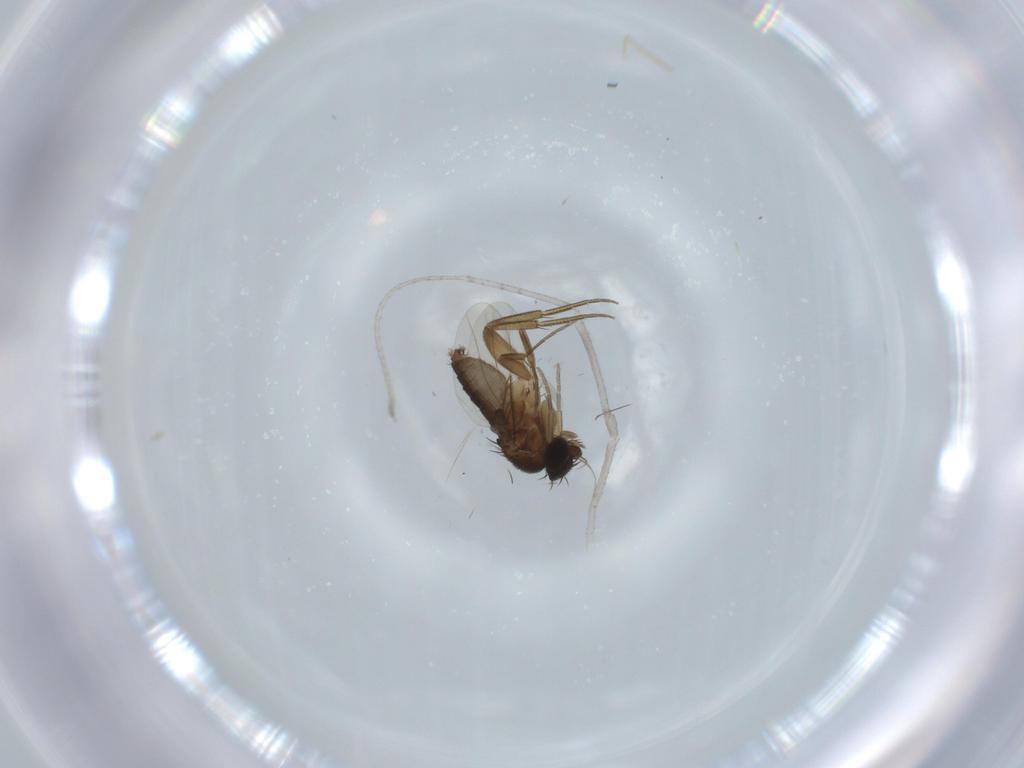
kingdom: Animalia
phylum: Arthropoda
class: Insecta
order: Diptera
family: Phoridae
